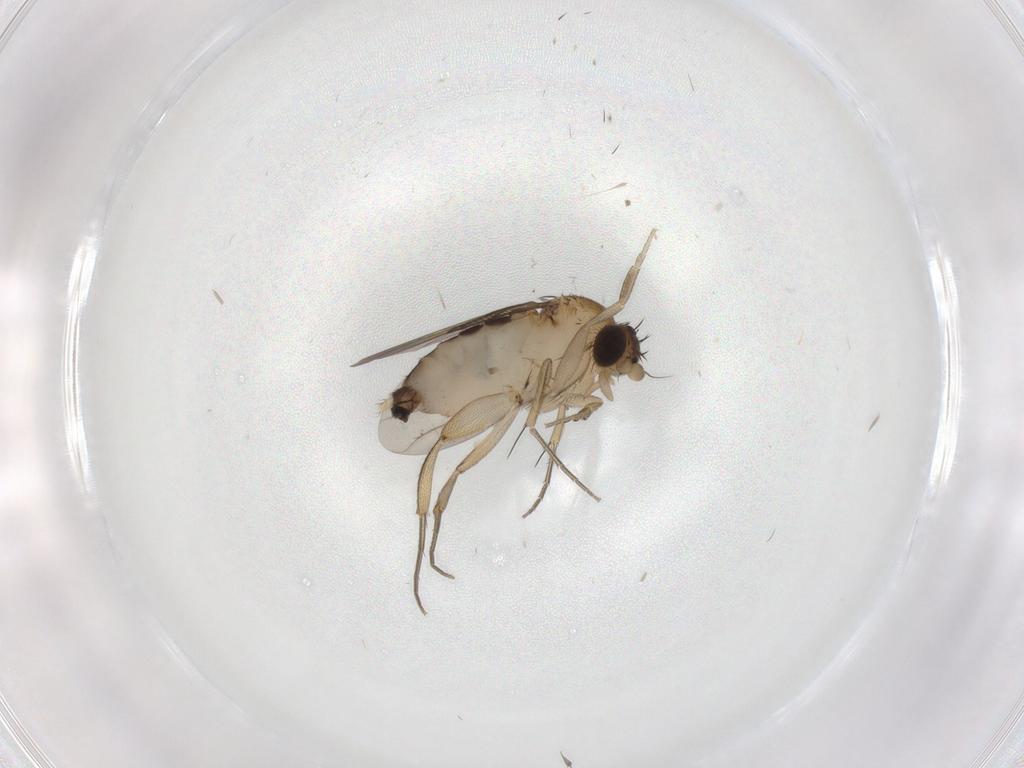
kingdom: Animalia
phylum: Arthropoda
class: Insecta
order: Diptera
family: Phoridae
